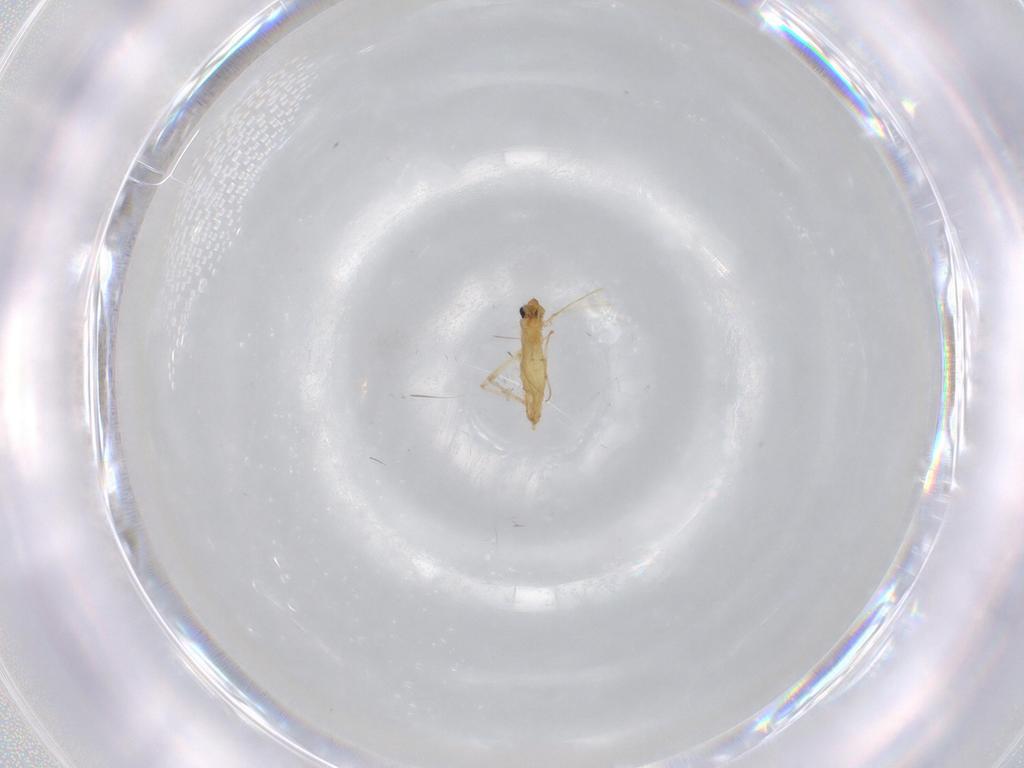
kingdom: Animalia
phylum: Arthropoda
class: Insecta
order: Diptera
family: Chironomidae
